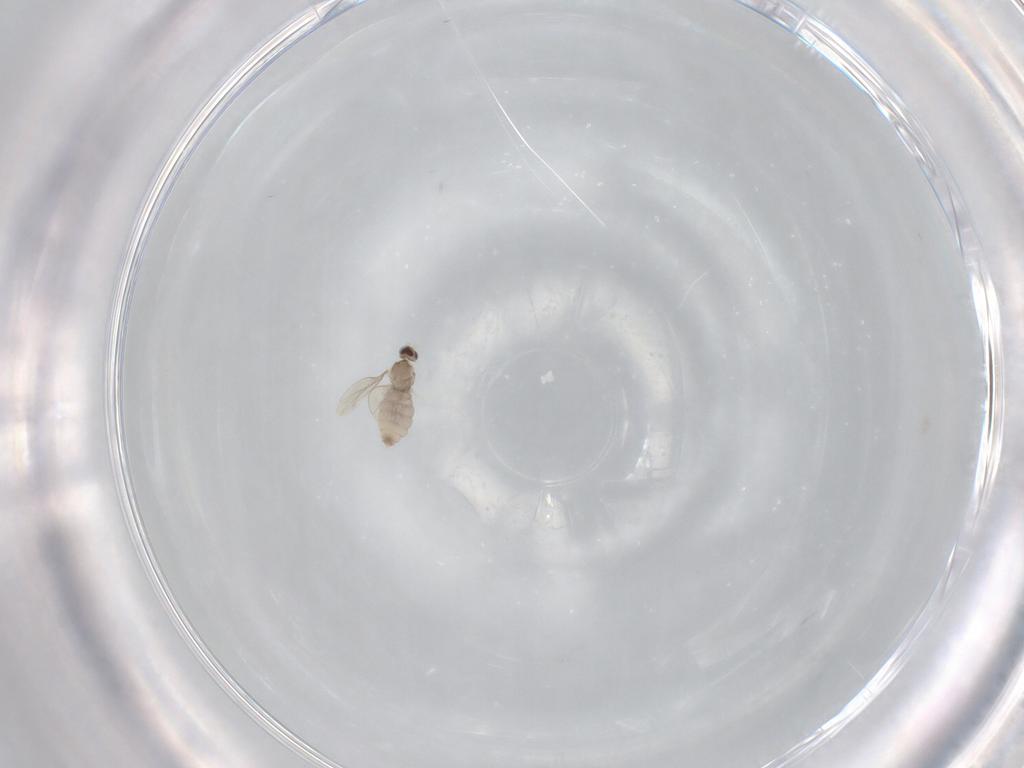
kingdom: Animalia
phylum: Arthropoda
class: Insecta
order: Diptera
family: Cecidomyiidae
